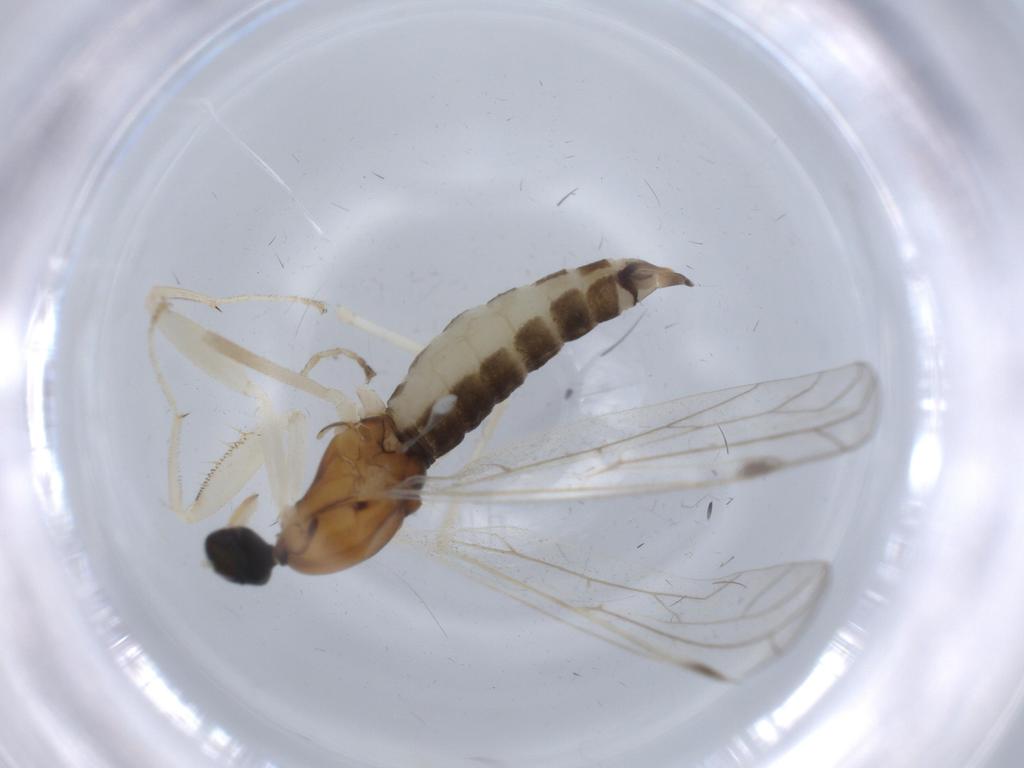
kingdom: Animalia
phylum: Arthropoda
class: Insecta
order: Diptera
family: Empididae
